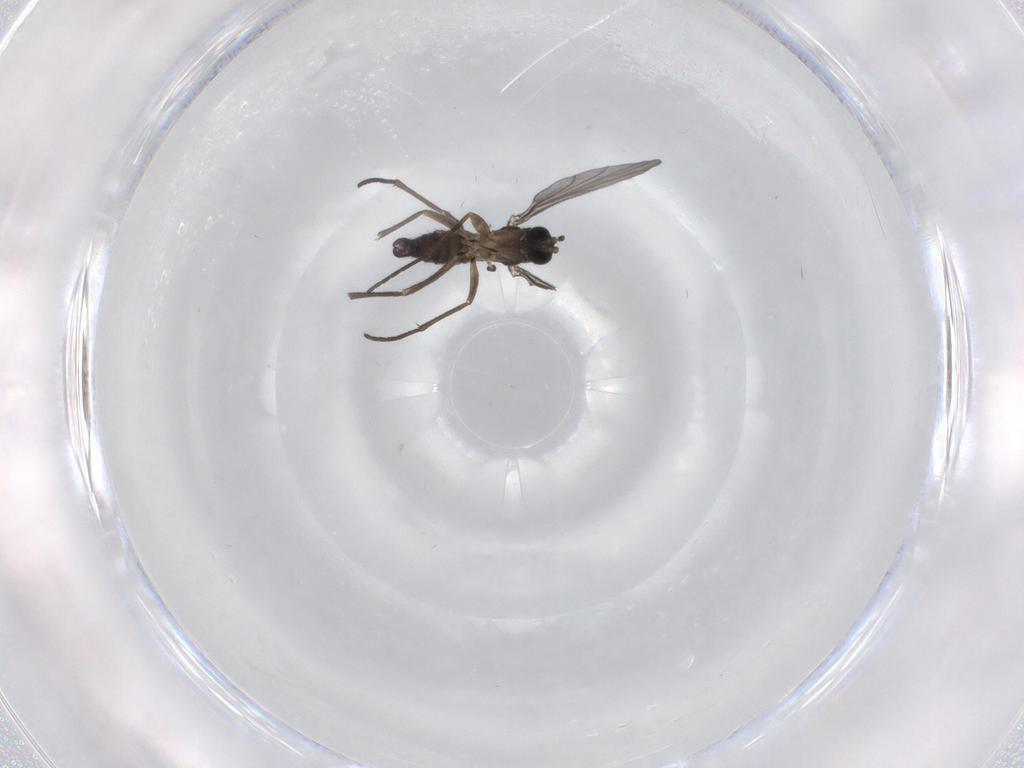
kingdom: Animalia
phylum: Arthropoda
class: Insecta
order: Diptera
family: Sciaridae
